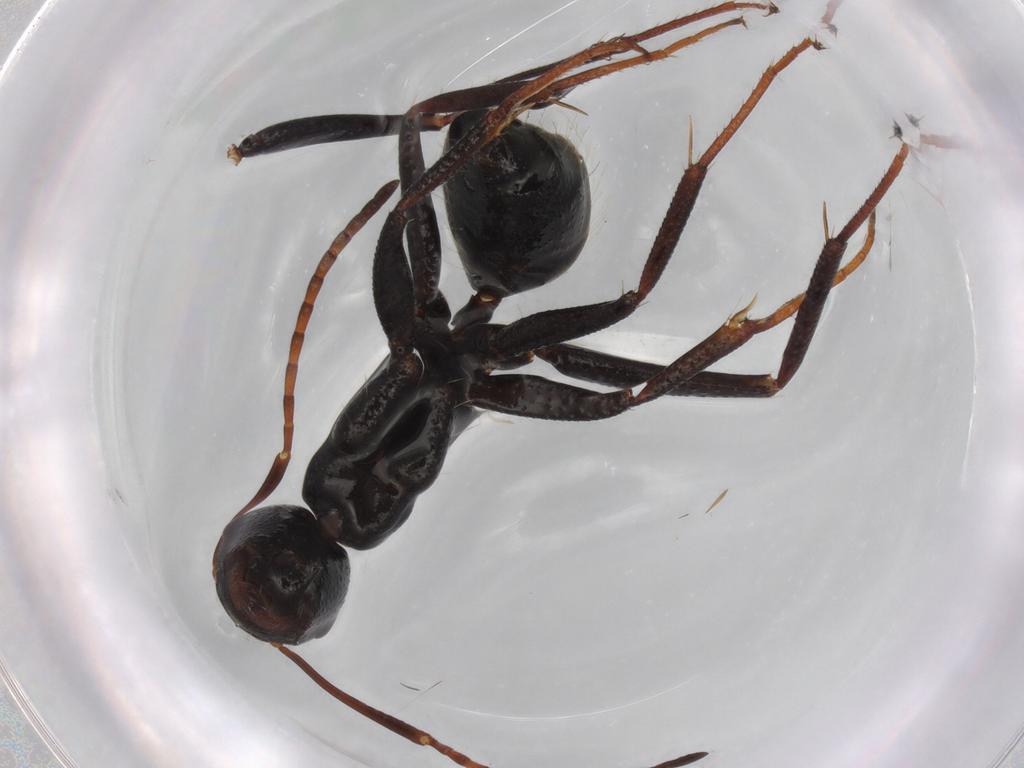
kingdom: Animalia
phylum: Arthropoda
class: Insecta
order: Hymenoptera
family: Formicidae
